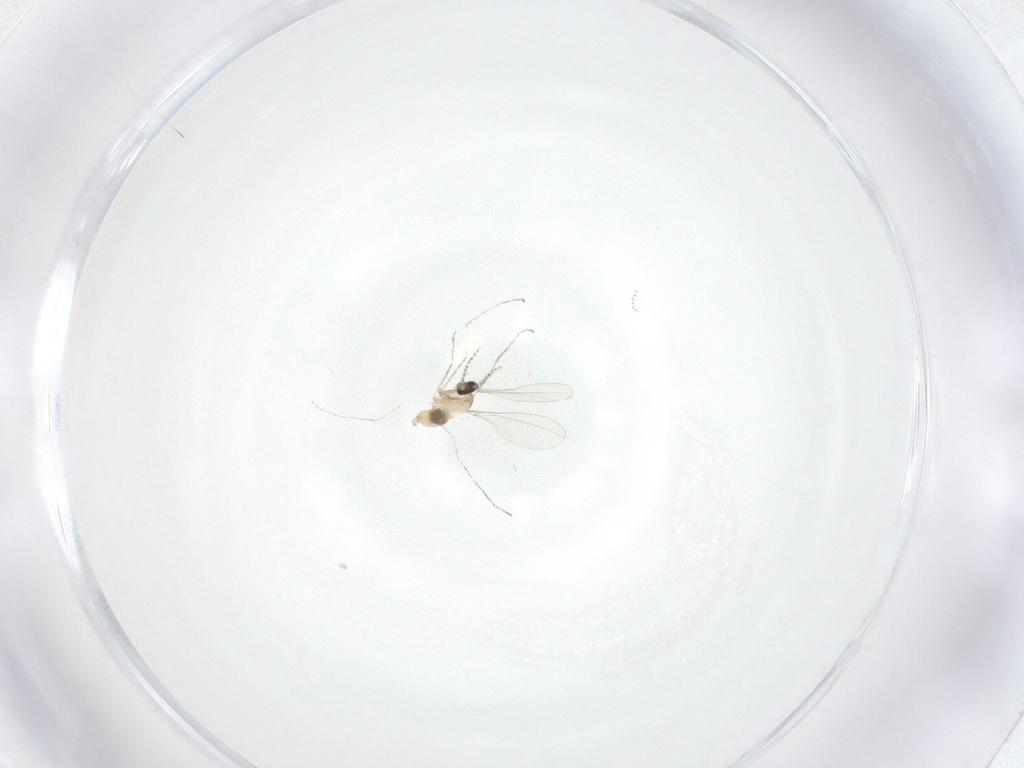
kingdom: Animalia
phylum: Arthropoda
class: Insecta
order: Diptera
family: Cecidomyiidae
